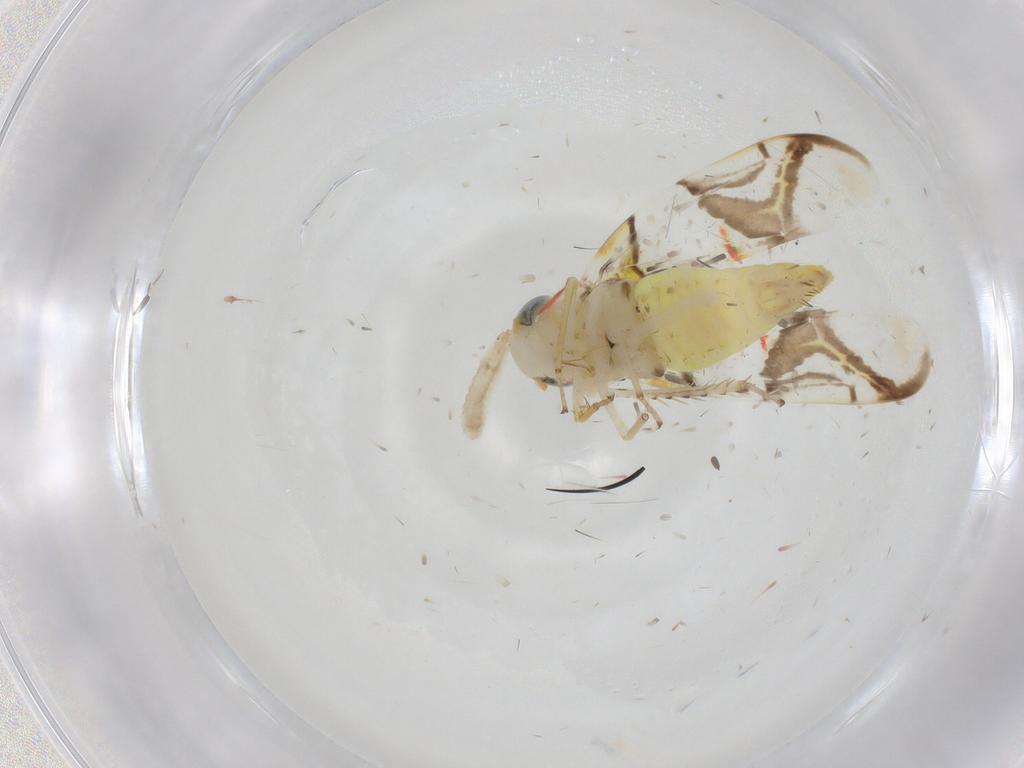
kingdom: Animalia
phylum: Arthropoda
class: Insecta
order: Hemiptera
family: Cicadellidae
